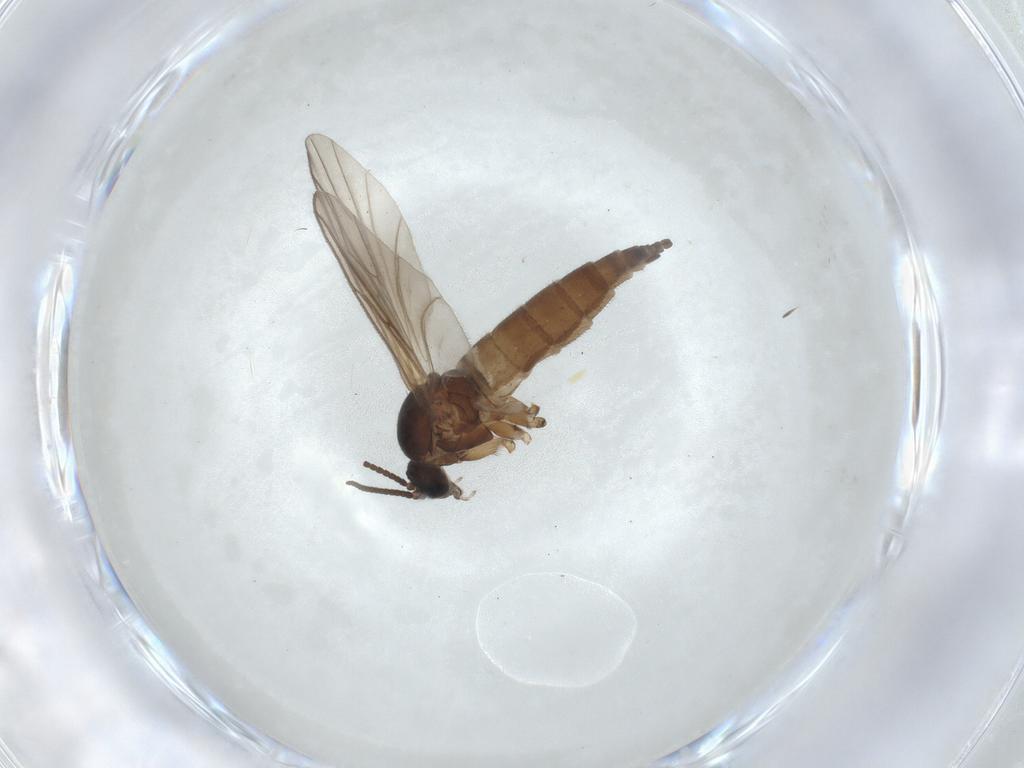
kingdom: Animalia
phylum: Arthropoda
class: Insecta
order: Diptera
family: Sciaridae
